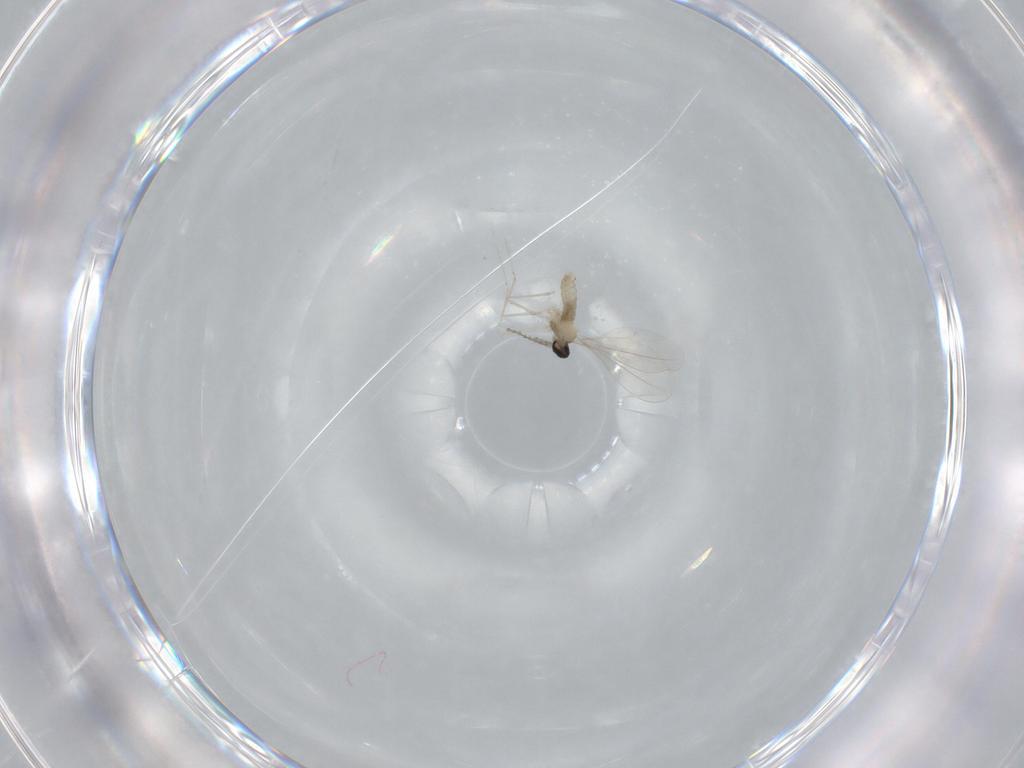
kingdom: Animalia
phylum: Arthropoda
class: Insecta
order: Diptera
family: Cecidomyiidae
